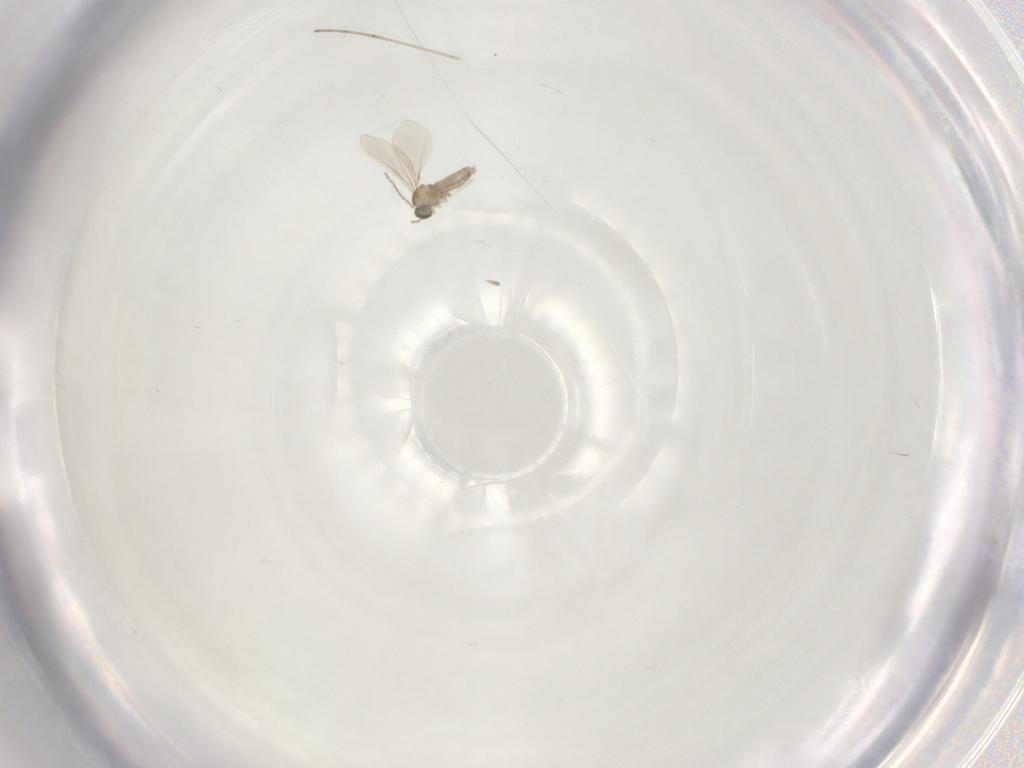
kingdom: Animalia
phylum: Arthropoda
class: Insecta
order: Diptera
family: Cecidomyiidae
